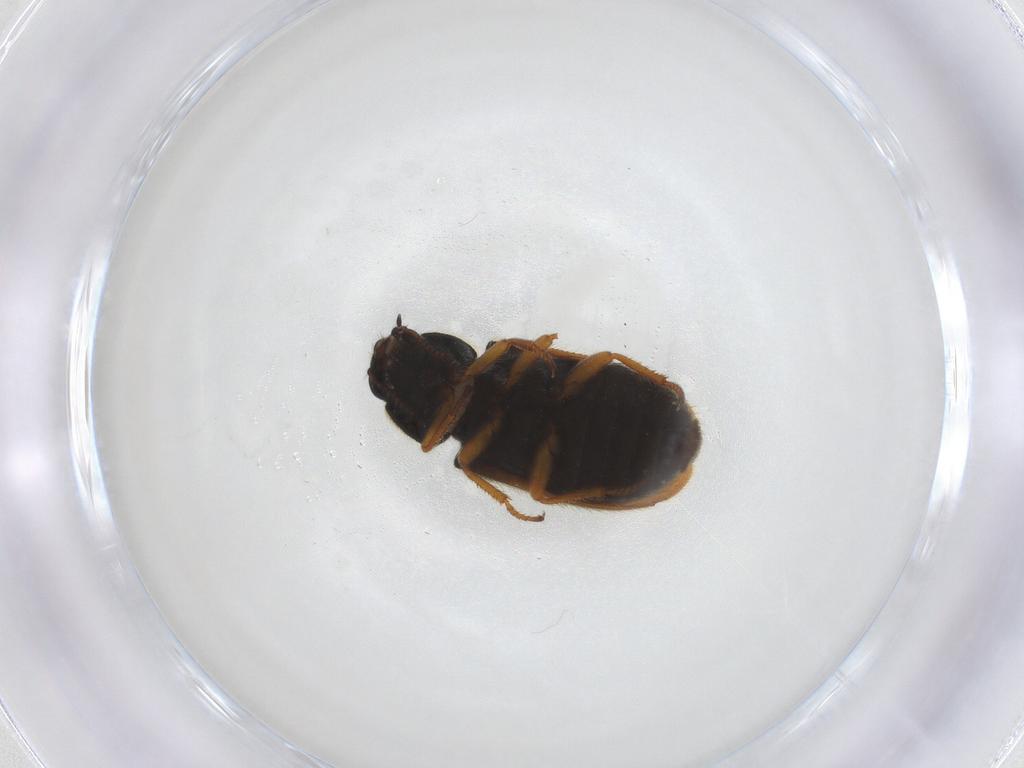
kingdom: Animalia
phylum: Arthropoda
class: Insecta
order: Coleoptera
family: Melyridae
